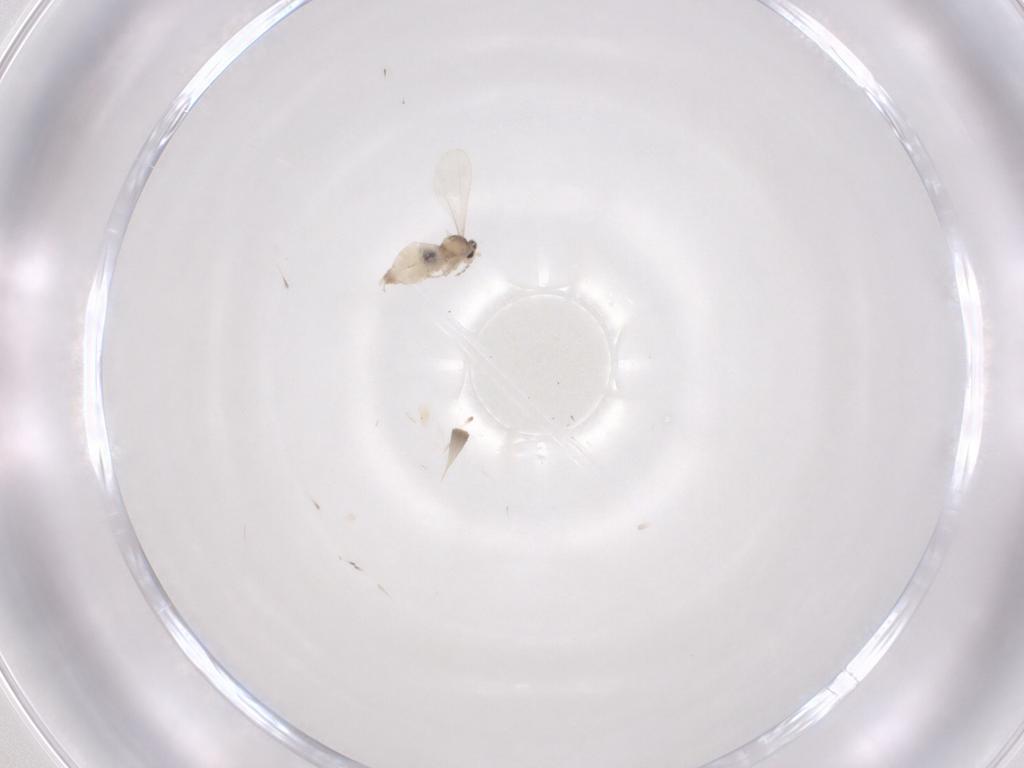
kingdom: Animalia
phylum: Arthropoda
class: Insecta
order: Diptera
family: Cecidomyiidae
